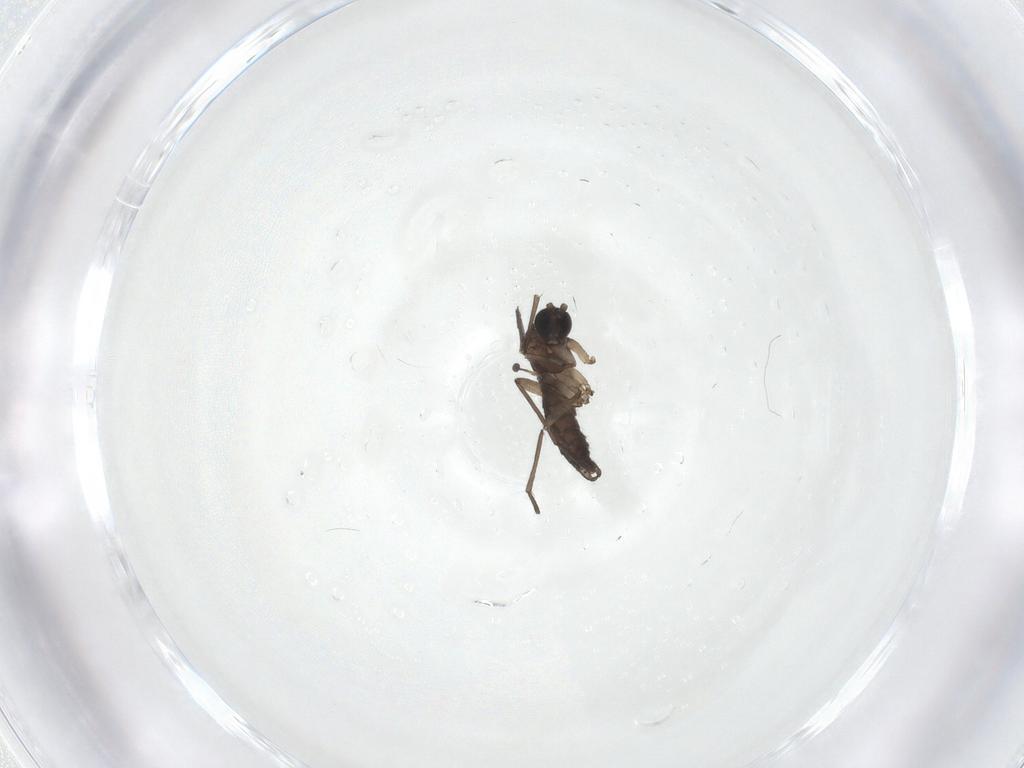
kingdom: Animalia
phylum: Arthropoda
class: Insecta
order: Diptera
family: Sciaridae
